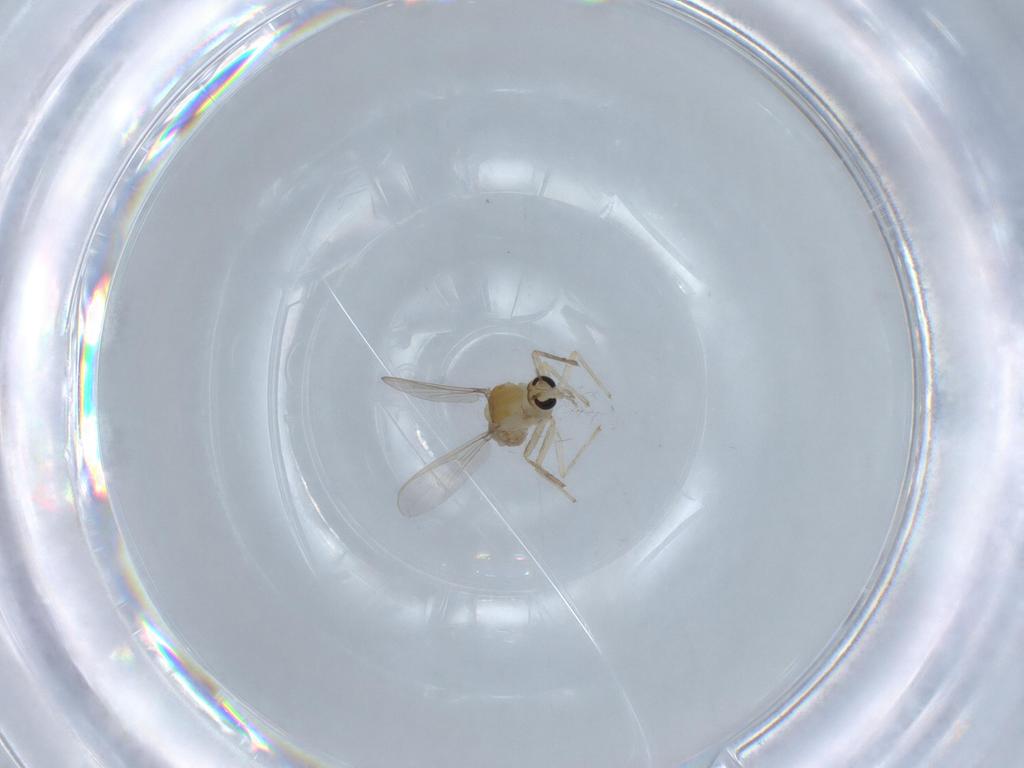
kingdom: Animalia
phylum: Arthropoda
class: Insecta
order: Diptera
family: Chironomidae
